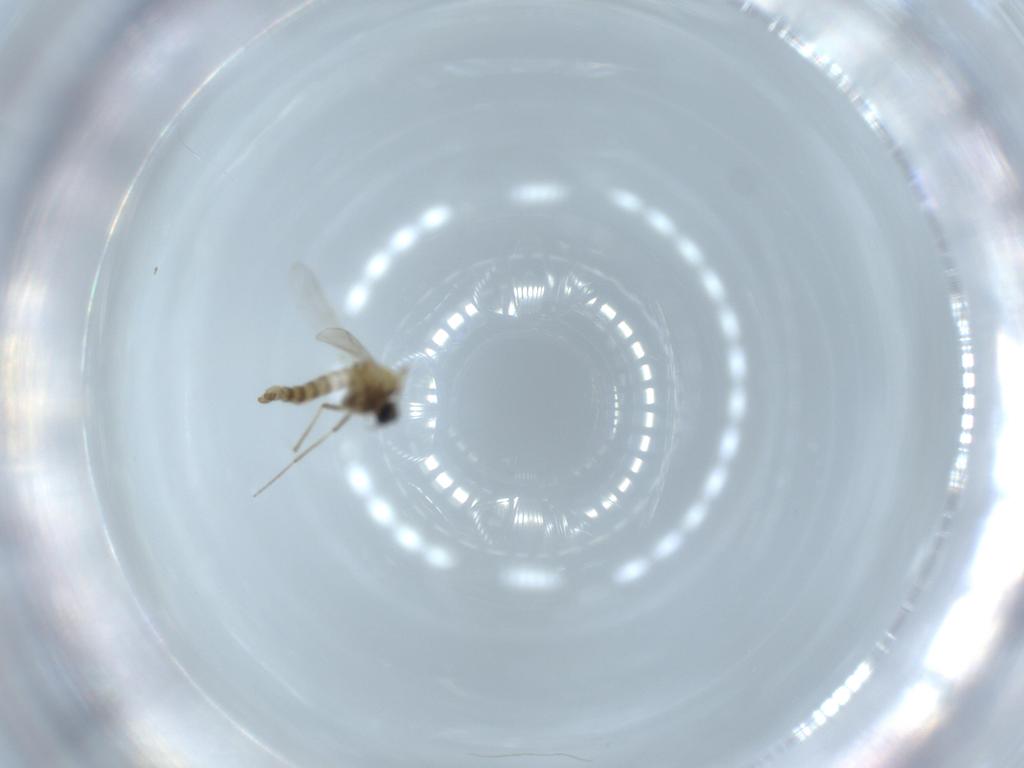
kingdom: Animalia
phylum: Arthropoda
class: Insecta
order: Diptera
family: Chironomidae
